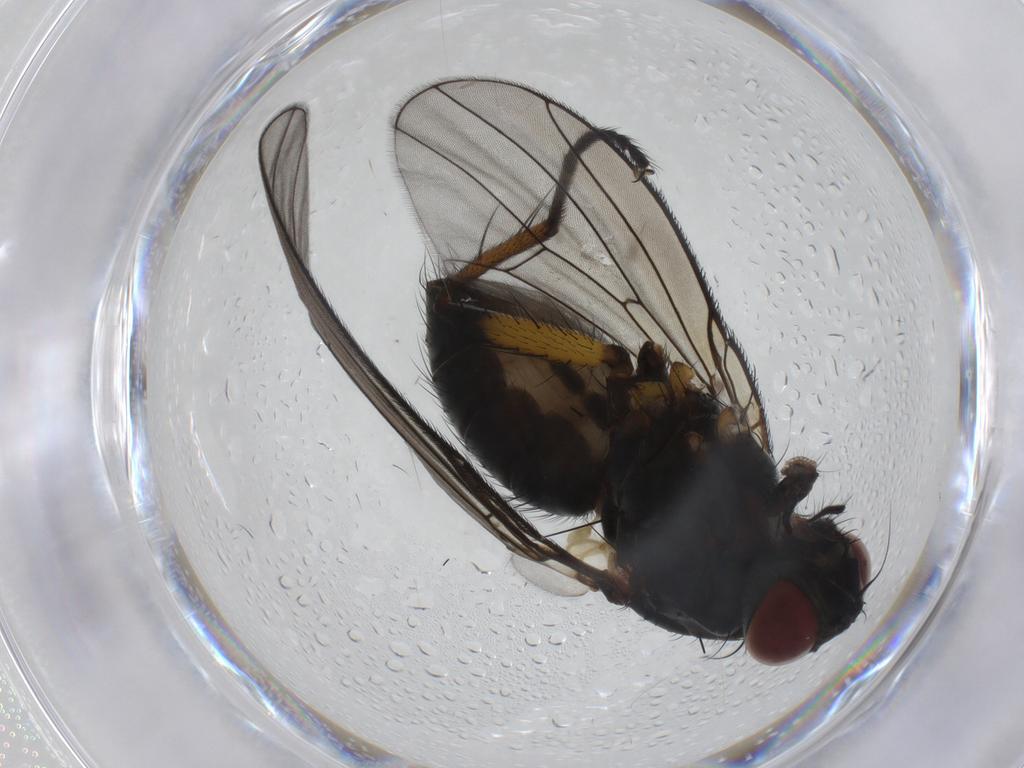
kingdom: Animalia
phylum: Arthropoda
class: Insecta
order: Diptera
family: Muscidae
